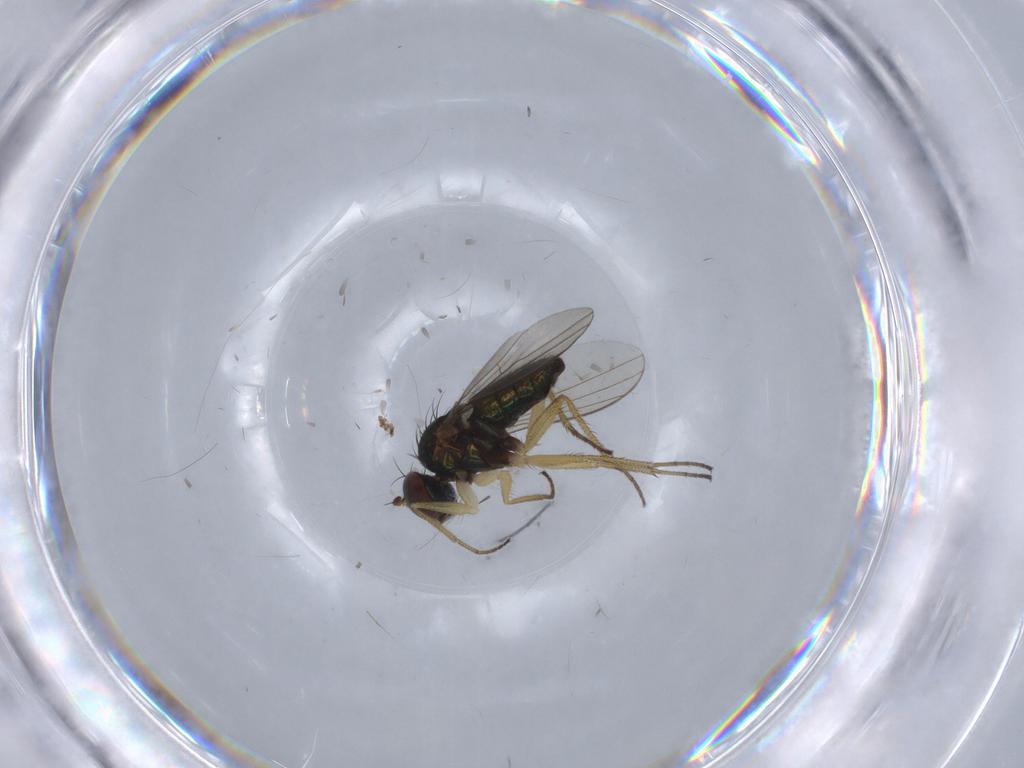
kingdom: Animalia
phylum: Arthropoda
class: Insecta
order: Diptera
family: Dolichopodidae
